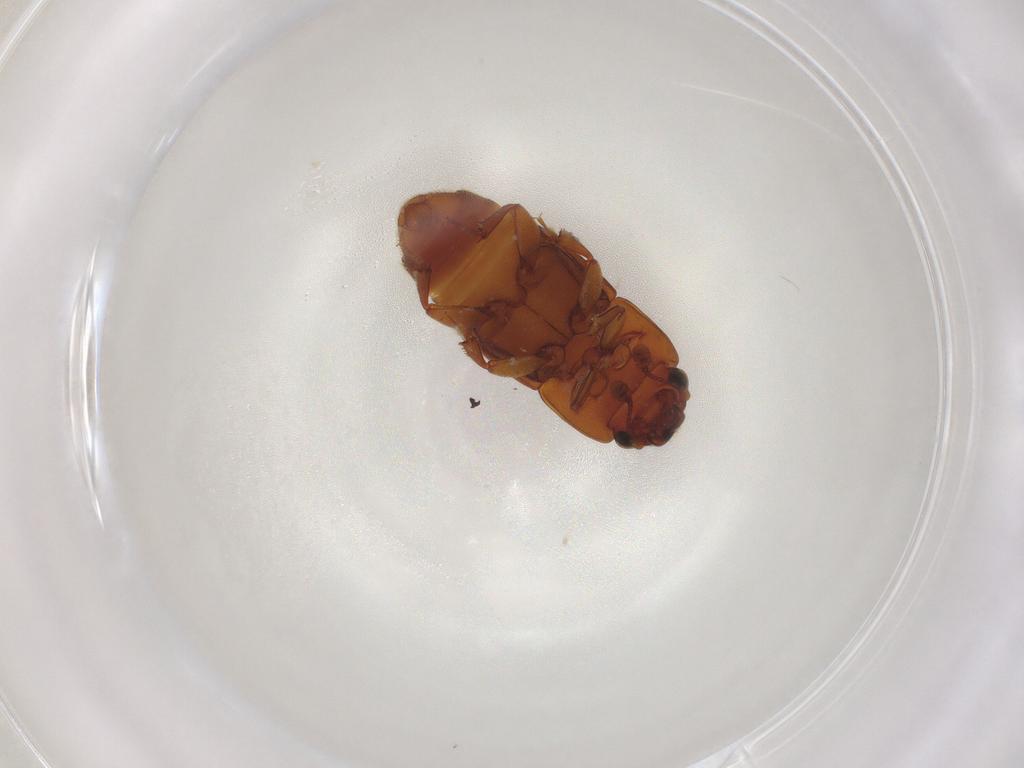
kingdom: Animalia
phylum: Arthropoda
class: Insecta
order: Coleoptera
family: Nitidulidae
